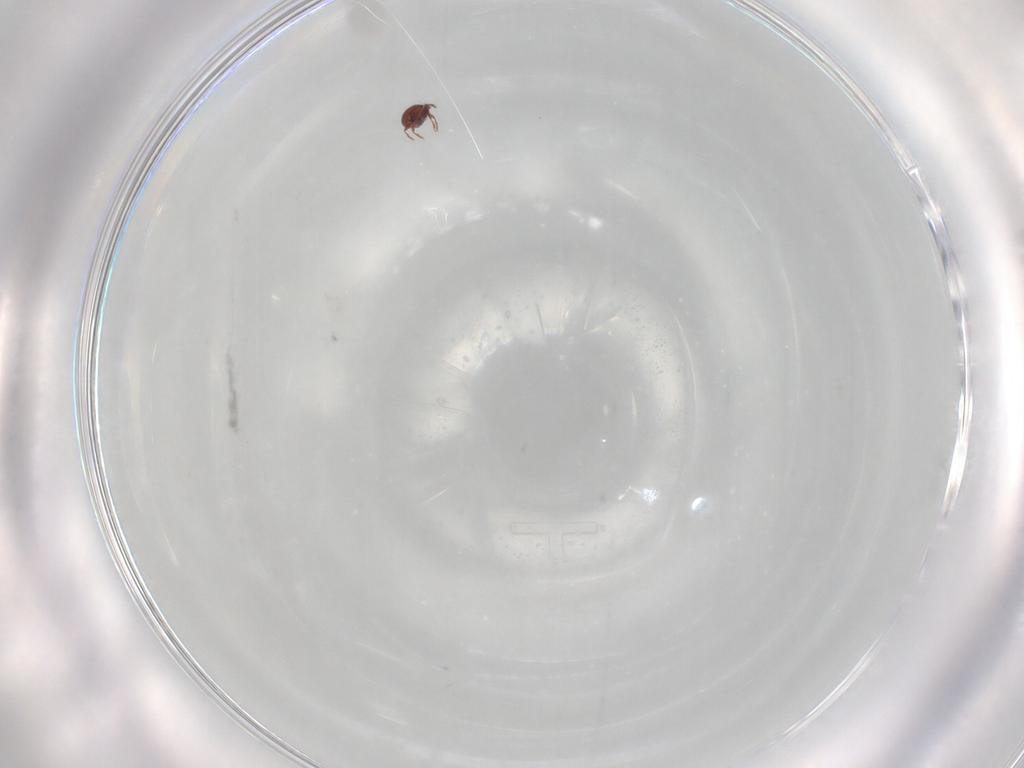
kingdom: Animalia
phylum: Arthropoda
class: Arachnida
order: Sarcoptiformes
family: Ceratoppiidae
